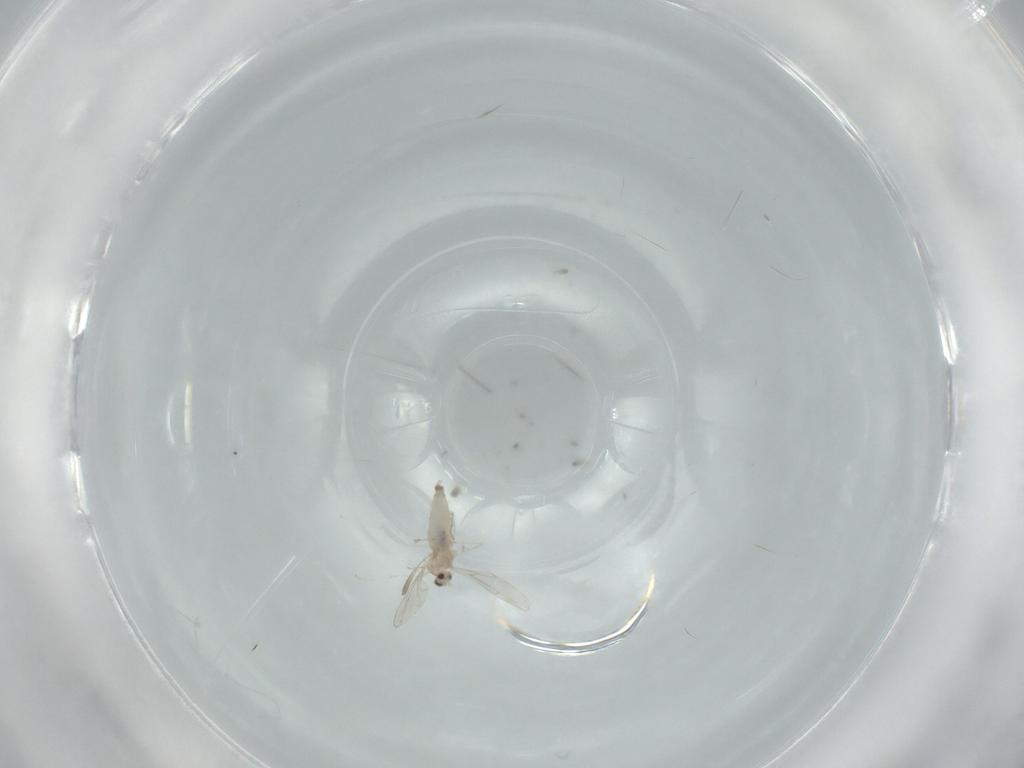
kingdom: Animalia
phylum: Arthropoda
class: Insecta
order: Diptera
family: Cecidomyiidae
